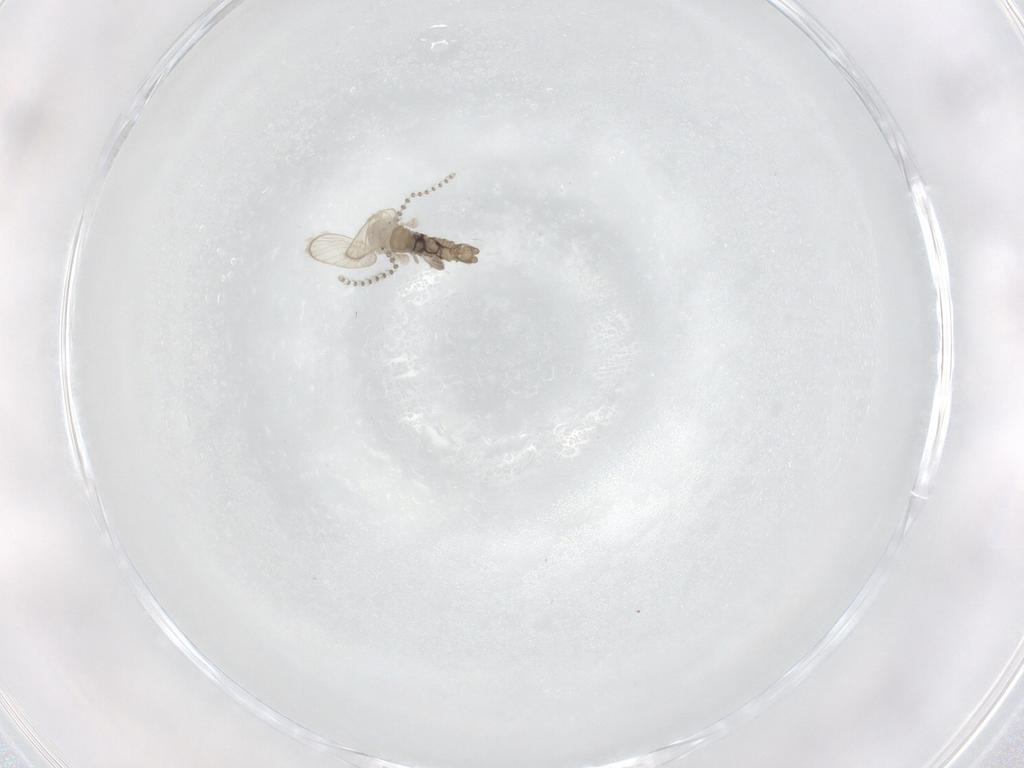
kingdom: Animalia
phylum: Arthropoda
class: Insecta
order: Diptera
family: Psychodidae
